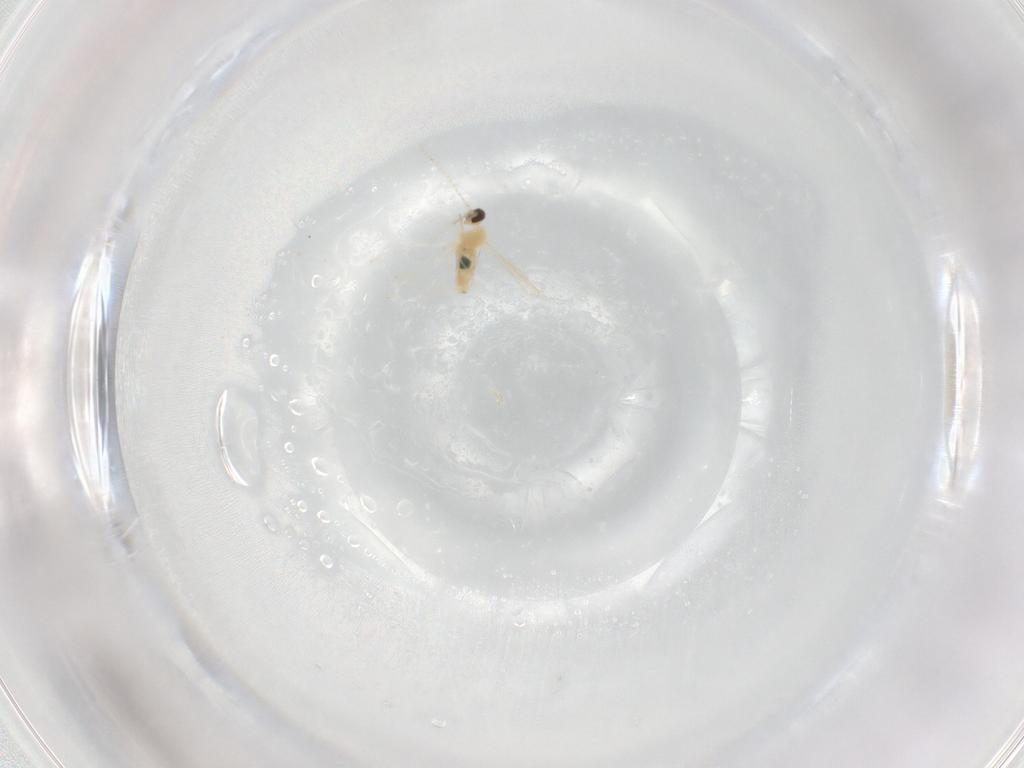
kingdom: Animalia
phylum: Arthropoda
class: Insecta
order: Diptera
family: Cecidomyiidae
